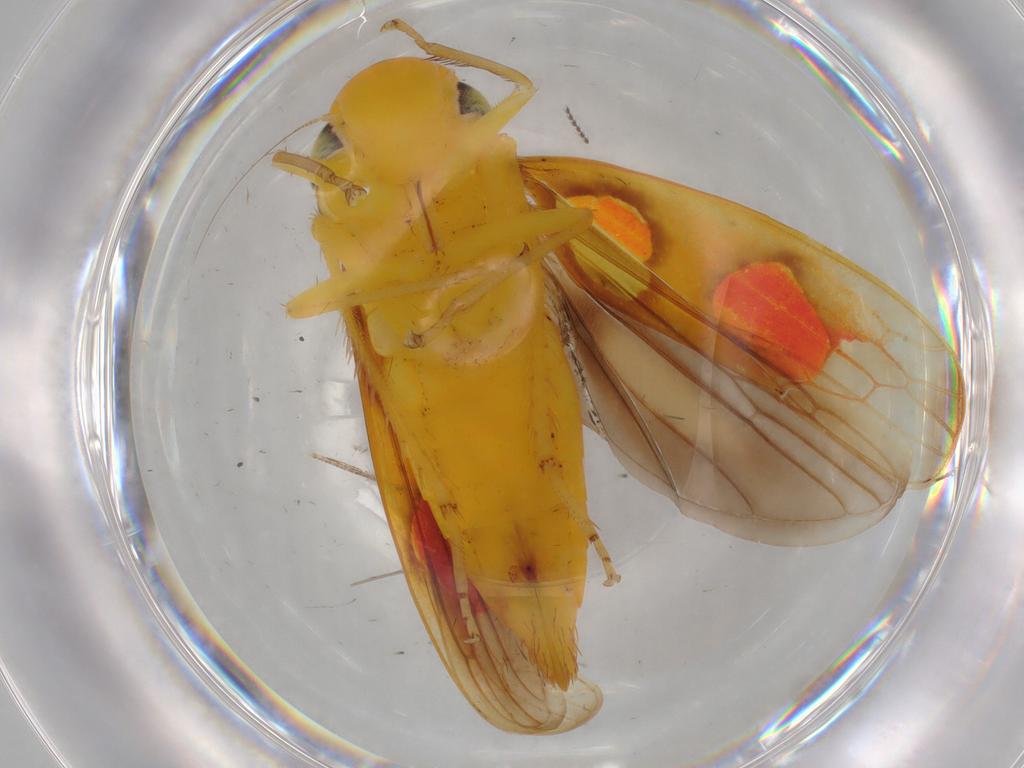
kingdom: Animalia
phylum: Arthropoda
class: Insecta
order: Hemiptera
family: Cicadellidae
